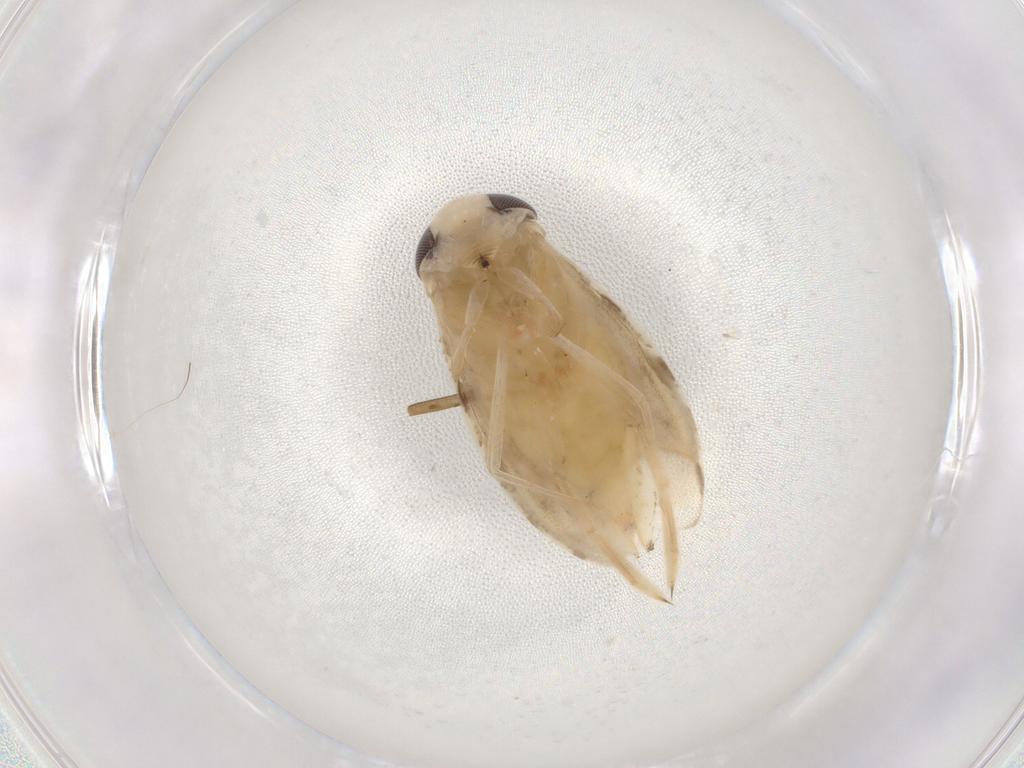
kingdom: Animalia
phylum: Arthropoda
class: Insecta
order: Hemiptera
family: Corixidae
